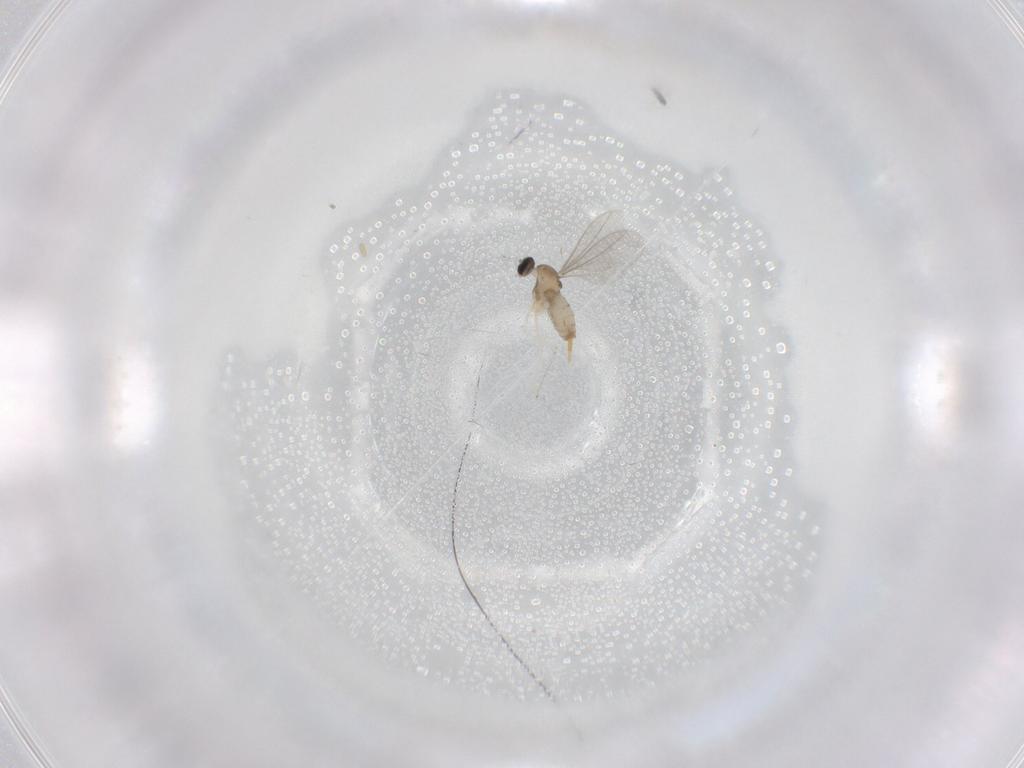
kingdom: Animalia
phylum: Arthropoda
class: Insecta
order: Diptera
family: Cecidomyiidae
